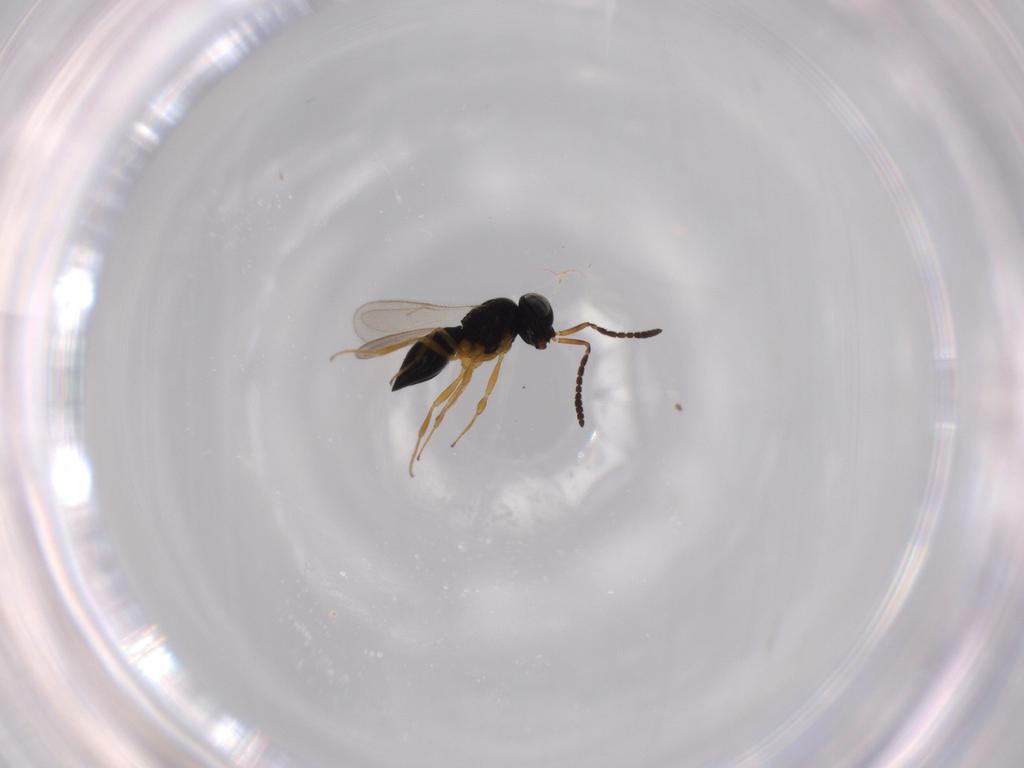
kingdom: Animalia
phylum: Arthropoda
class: Insecta
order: Hymenoptera
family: Scelionidae
